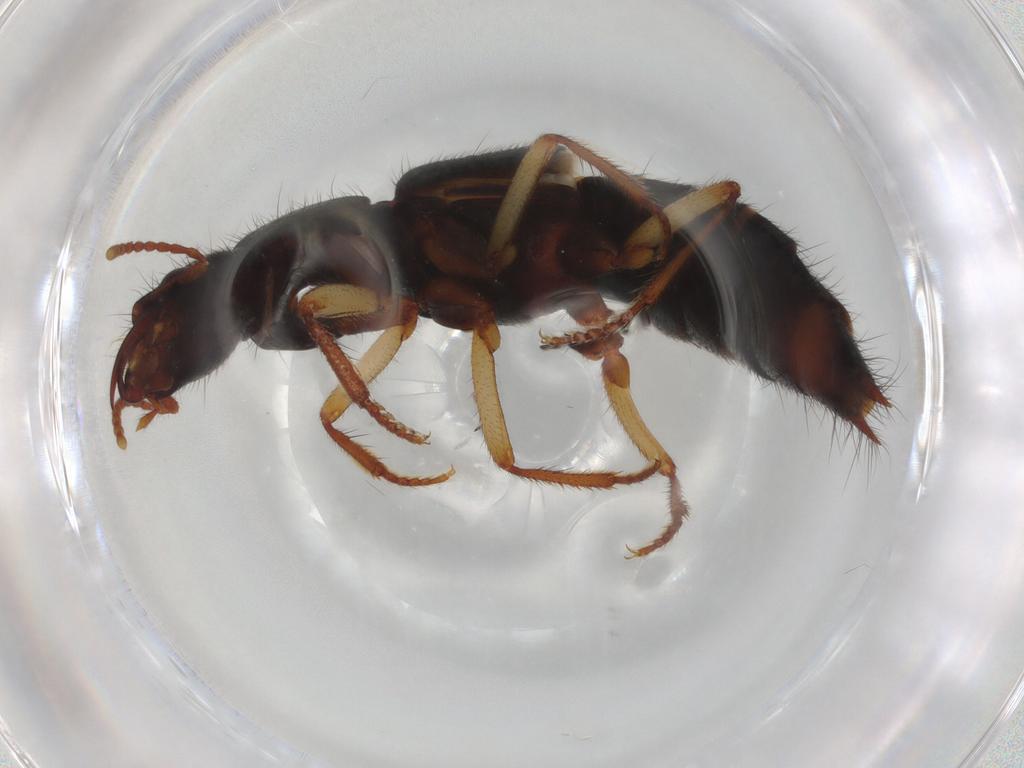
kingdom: Animalia
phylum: Arthropoda
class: Insecta
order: Coleoptera
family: Staphylinidae
